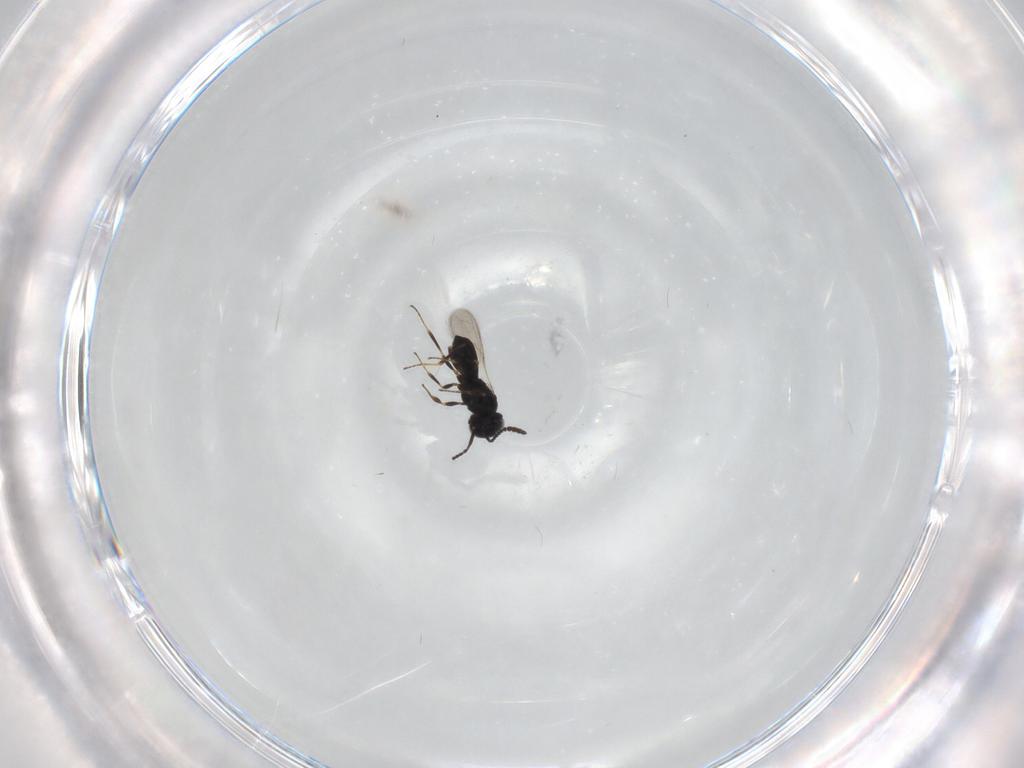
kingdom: Animalia
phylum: Arthropoda
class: Insecta
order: Hymenoptera
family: Scelionidae
